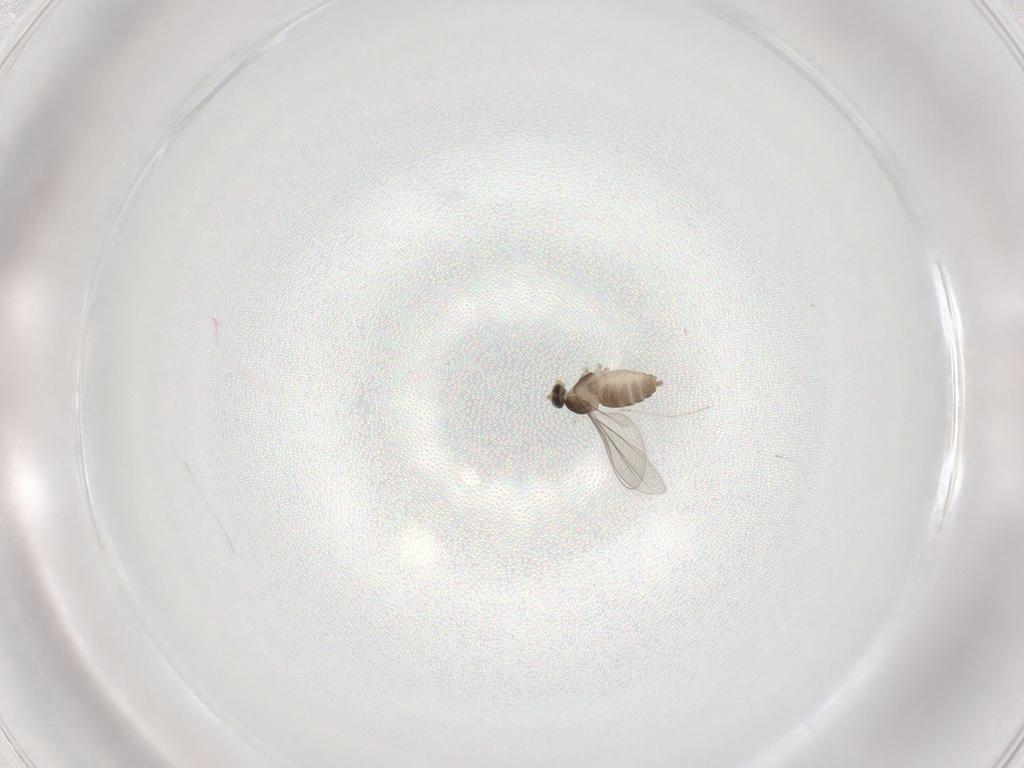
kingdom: Animalia
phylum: Arthropoda
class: Insecta
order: Diptera
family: Cecidomyiidae
